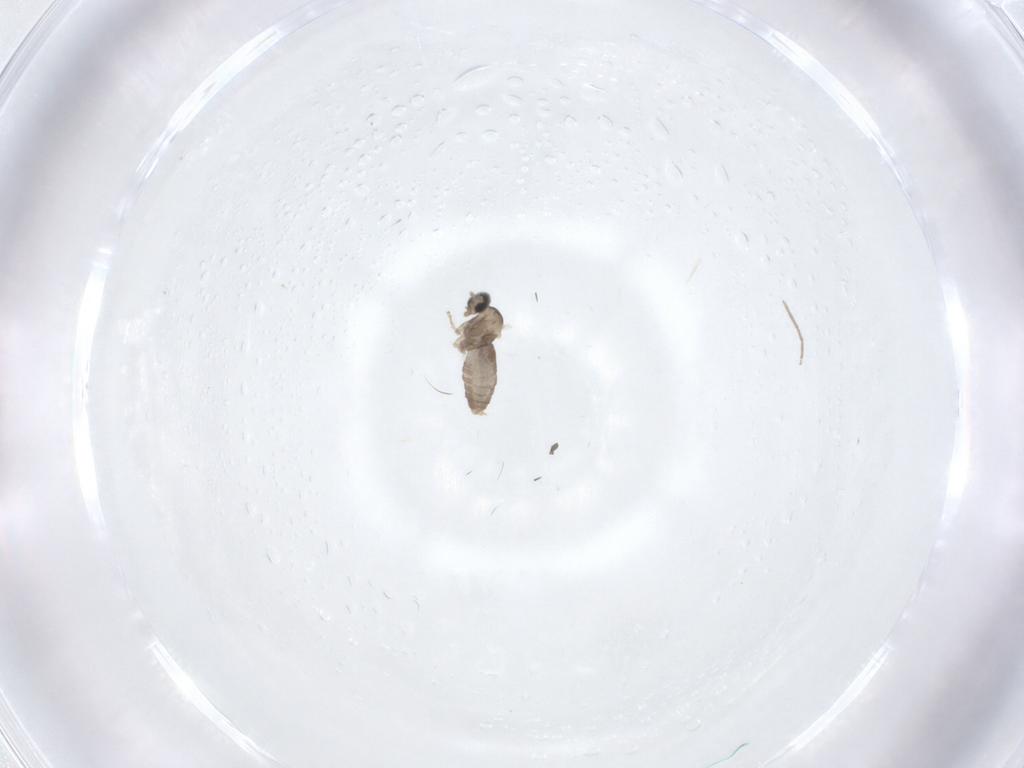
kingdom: Animalia
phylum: Arthropoda
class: Insecta
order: Diptera
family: Cecidomyiidae
